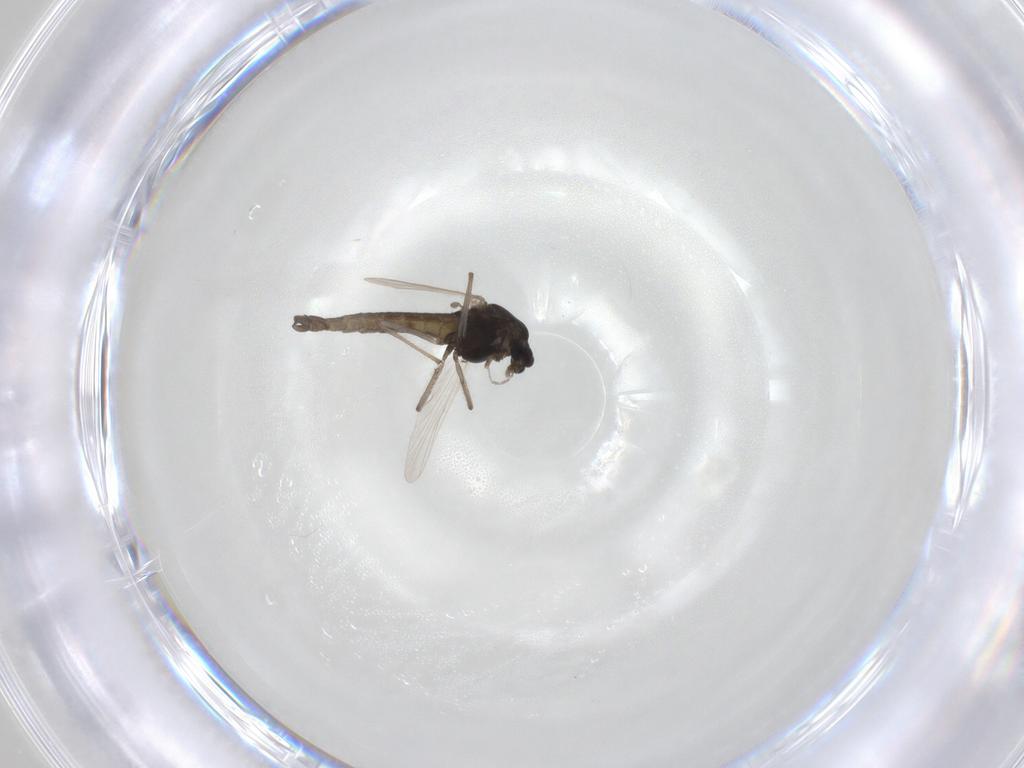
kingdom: Animalia
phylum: Arthropoda
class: Insecta
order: Diptera
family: Chironomidae
